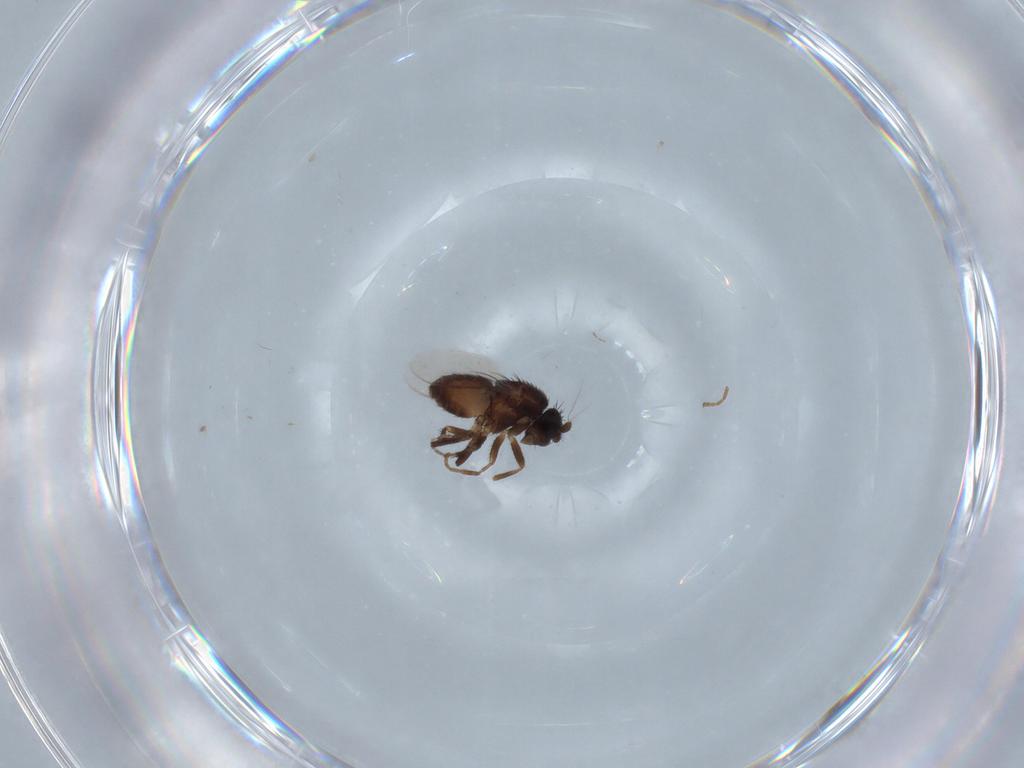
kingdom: Animalia
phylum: Arthropoda
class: Insecta
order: Diptera
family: Sphaeroceridae
